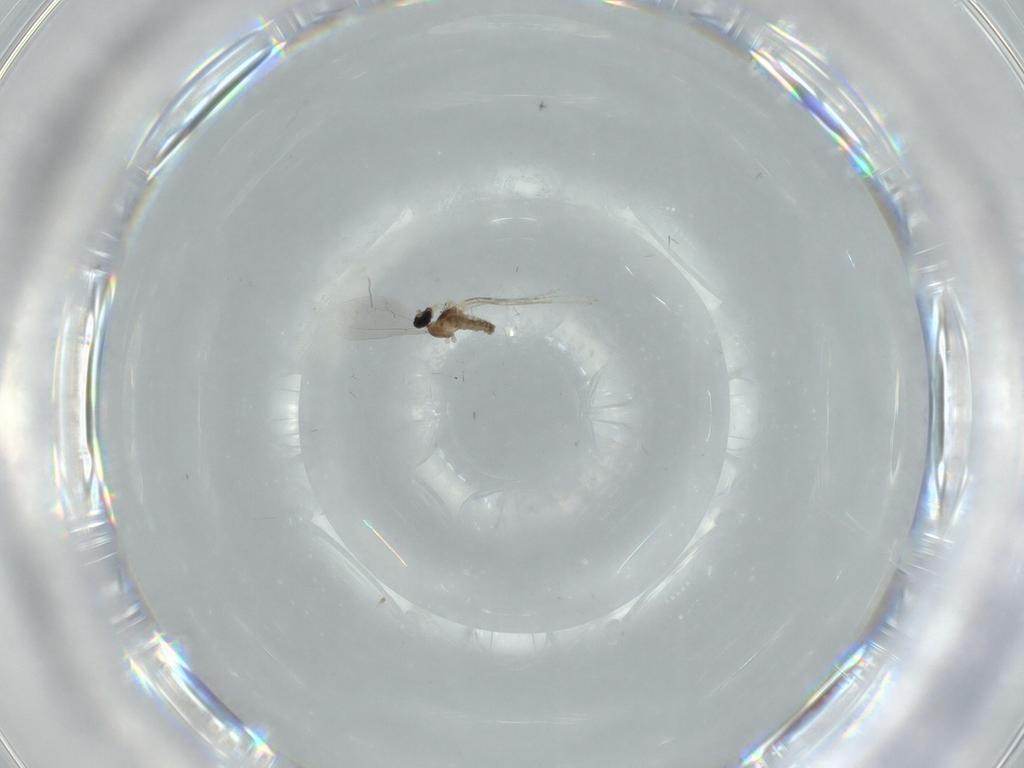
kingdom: Animalia
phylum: Arthropoda
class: Insecta
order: Diptera
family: Cecidomyiidae
